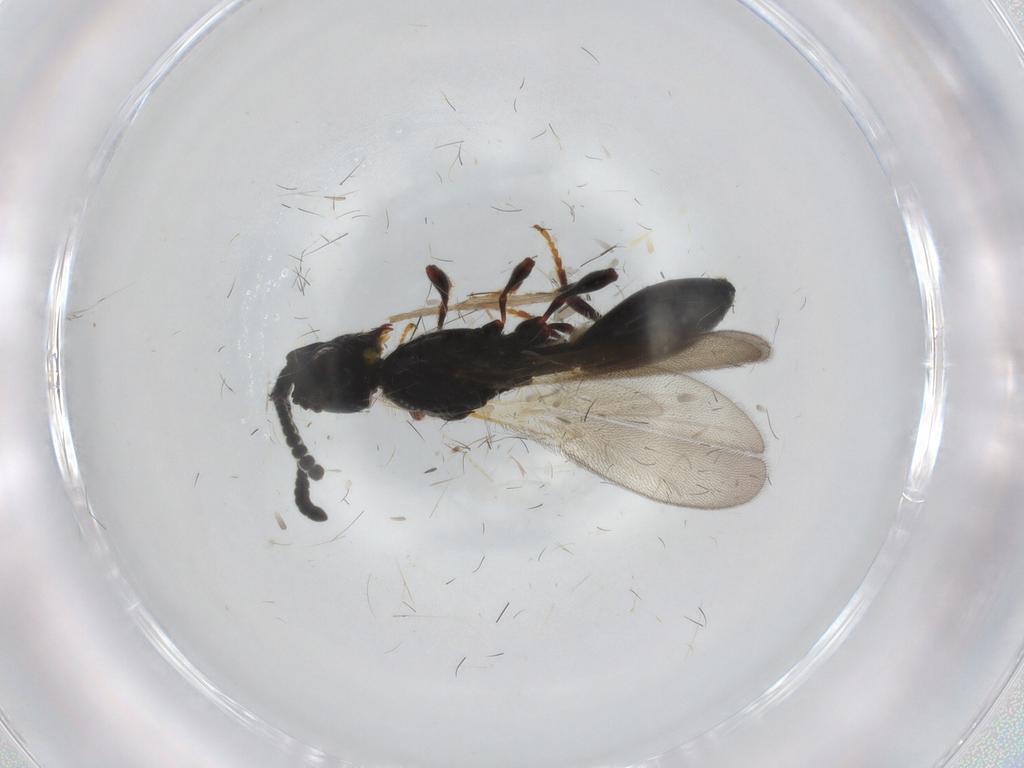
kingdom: Animalia
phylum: Arthropoda
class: Insecta
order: Hymenoptera
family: Diapriidae
